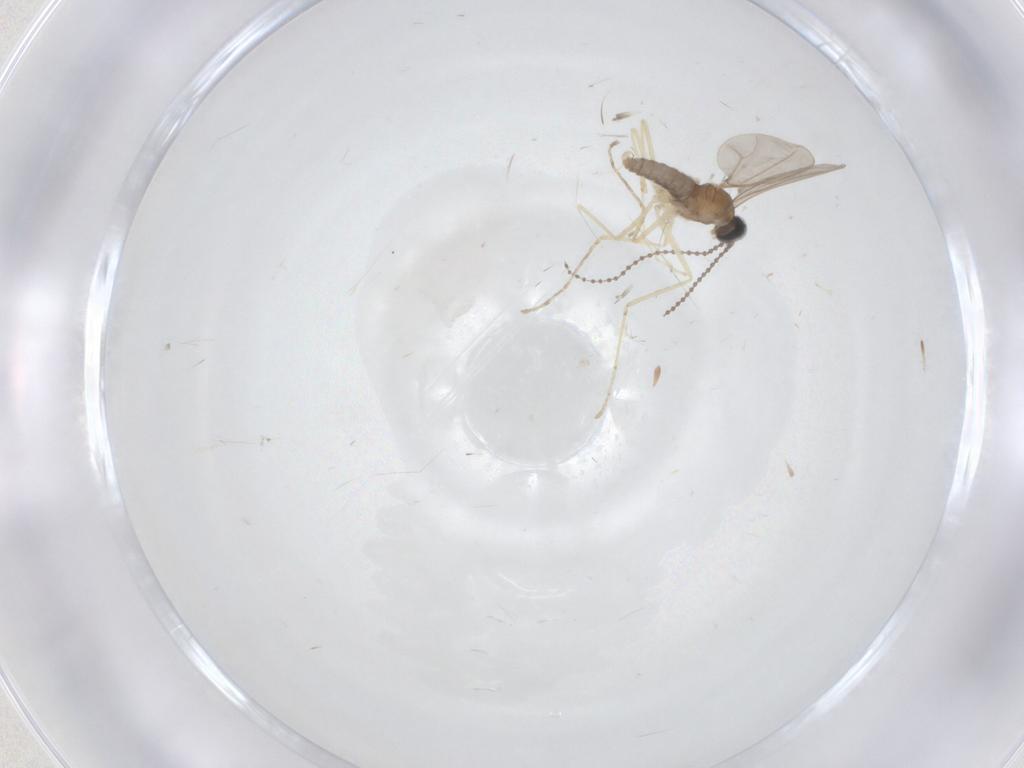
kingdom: Animalia
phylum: Arthropoda
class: Insecta
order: Diptera
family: Cecidomyiidae
